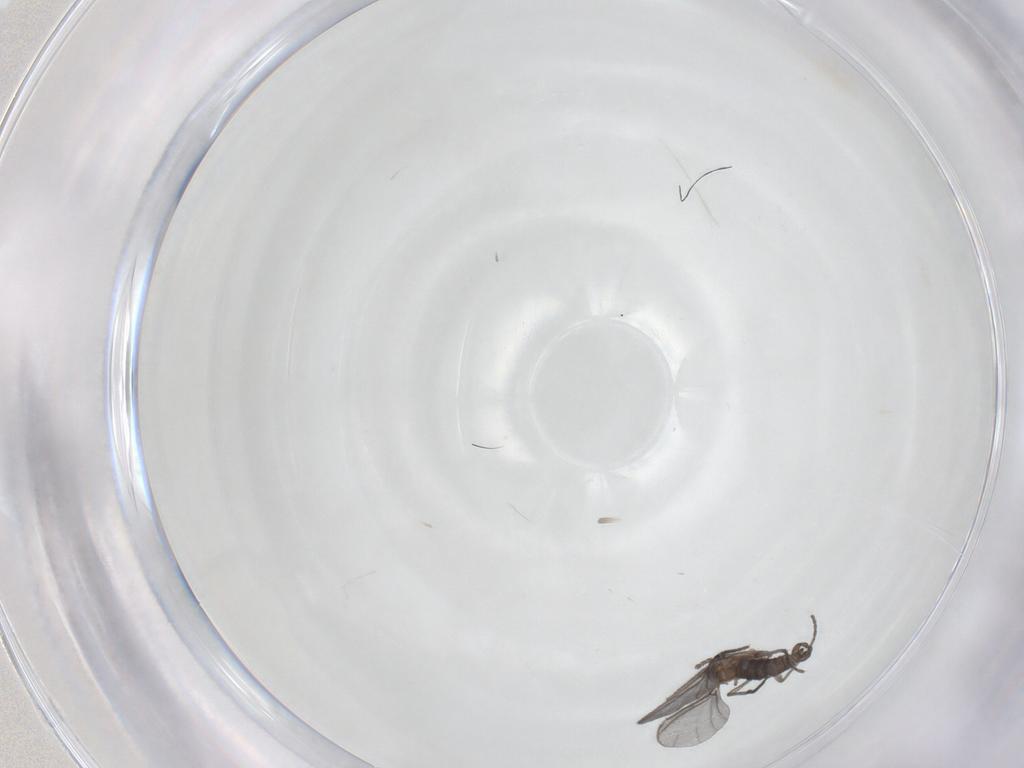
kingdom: Animalia
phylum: Arthropoda
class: Insecta
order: Diptera
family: Sciaridae
